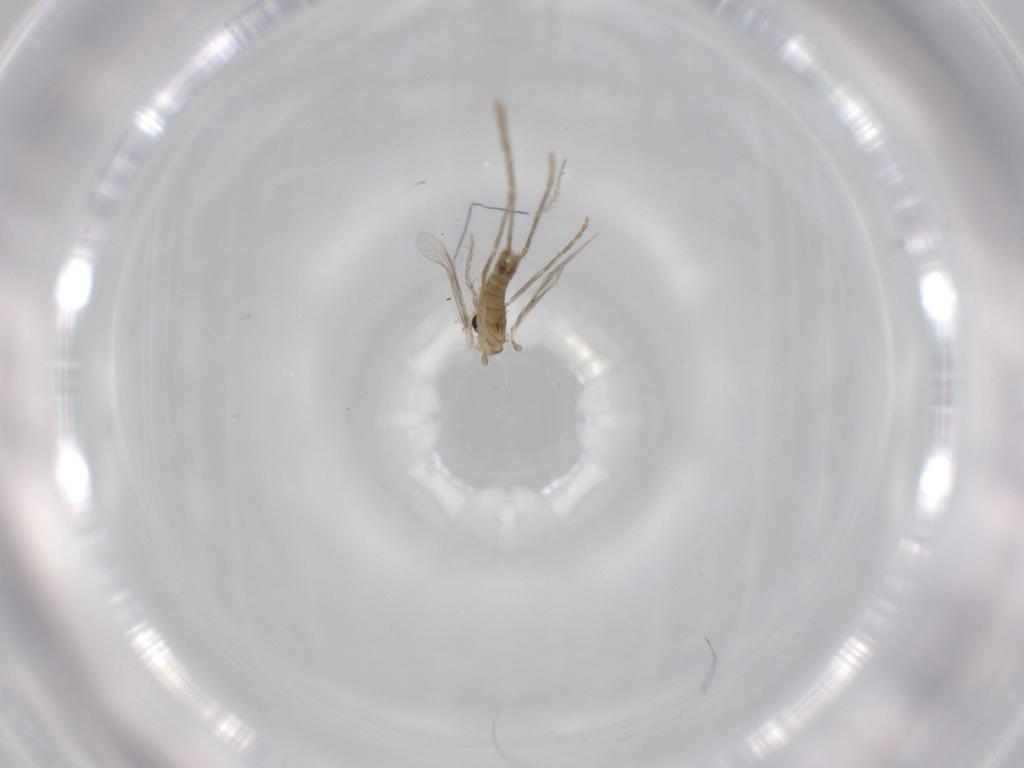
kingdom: Animalia
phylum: Arthropoda
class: Insecta
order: Diptera
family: Psychodidae
